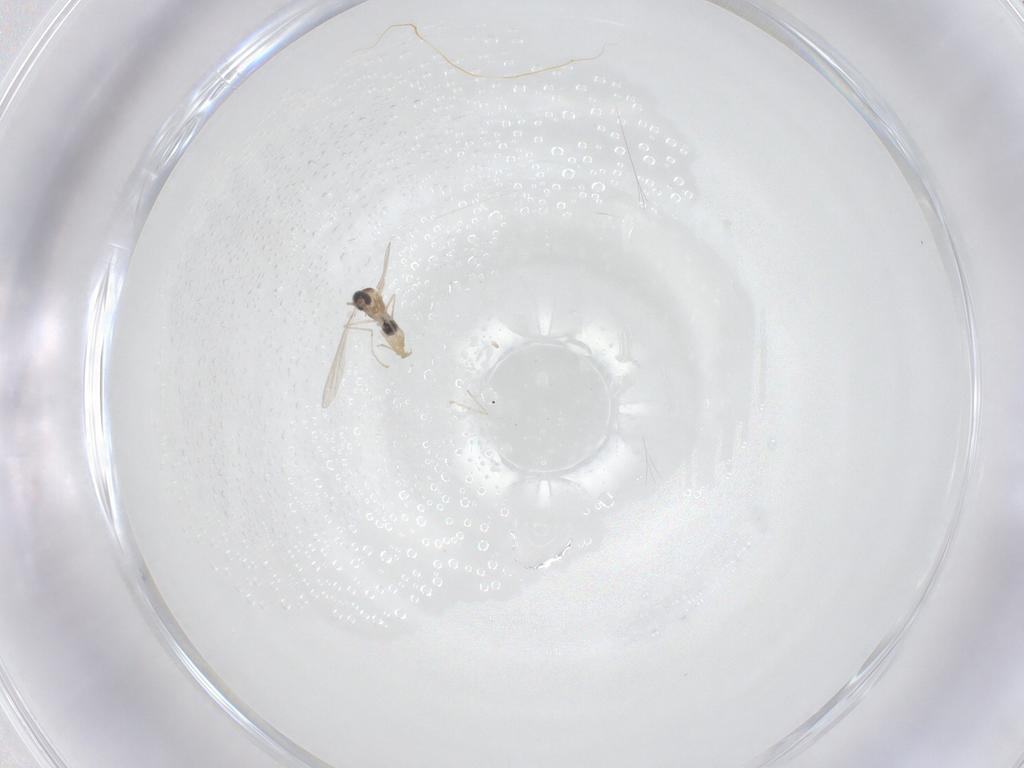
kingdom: Animalia
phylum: Arthropoda
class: Insecta
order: Diptera
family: Cecidomyiidae
